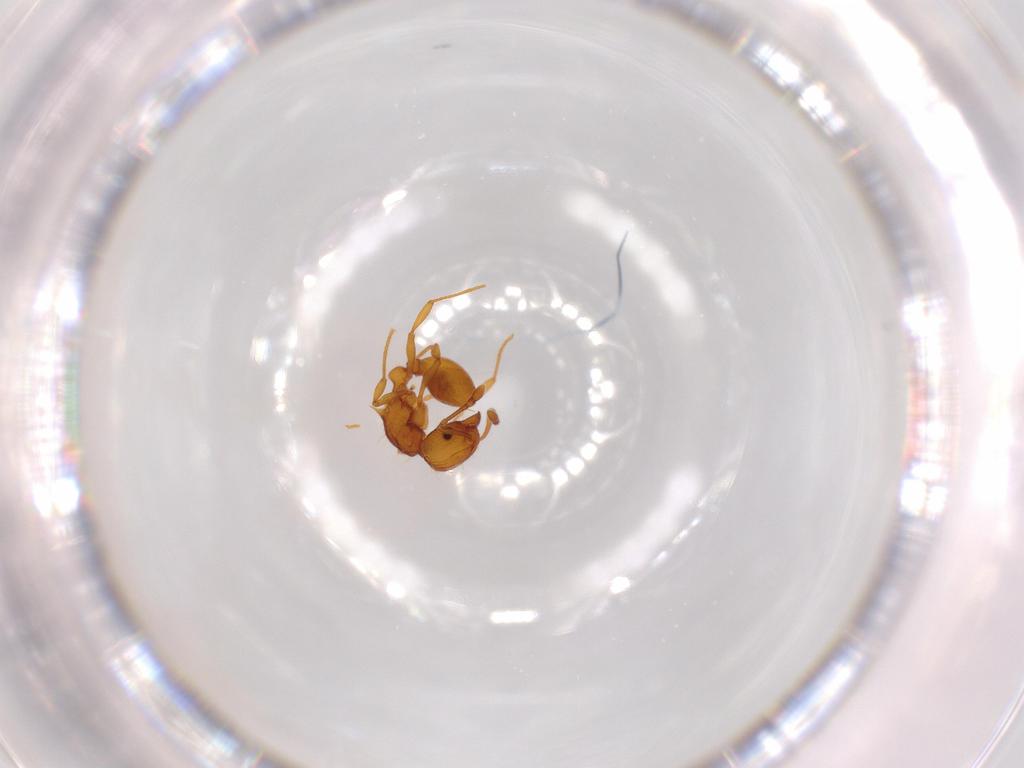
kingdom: Animalia
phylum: Arthropoda
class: Insecta
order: Hymenoptera
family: Formicidae
